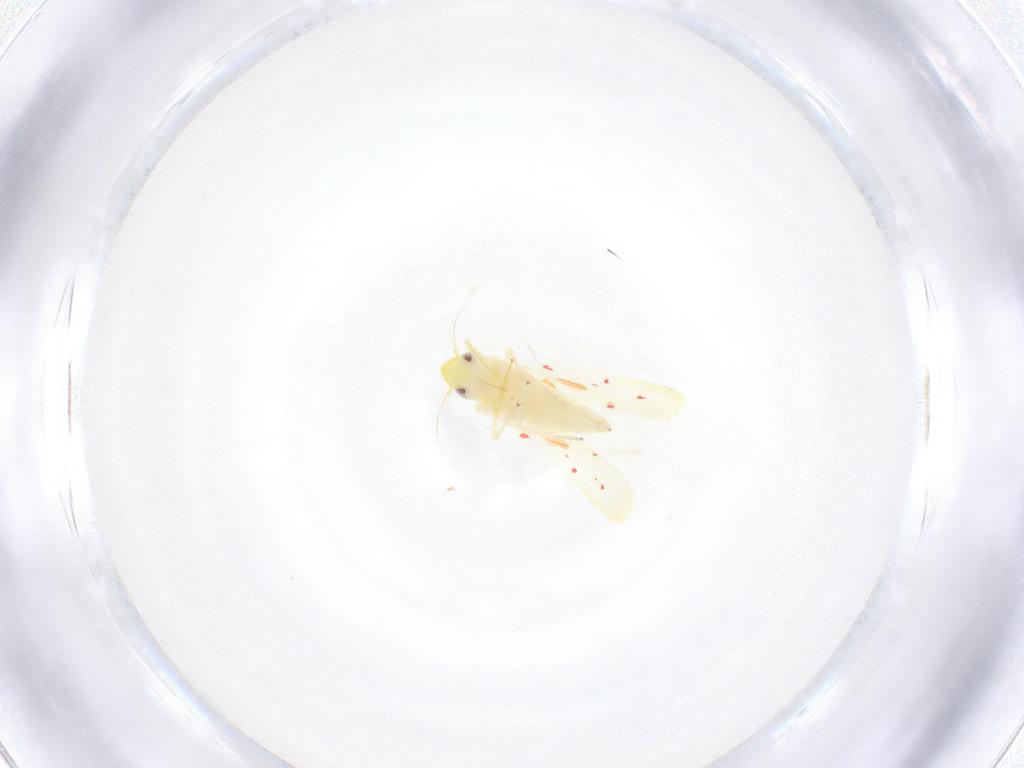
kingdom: Animalia
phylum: Arthropoda
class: Insecta
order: Hemiptera
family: Cicadellidae
